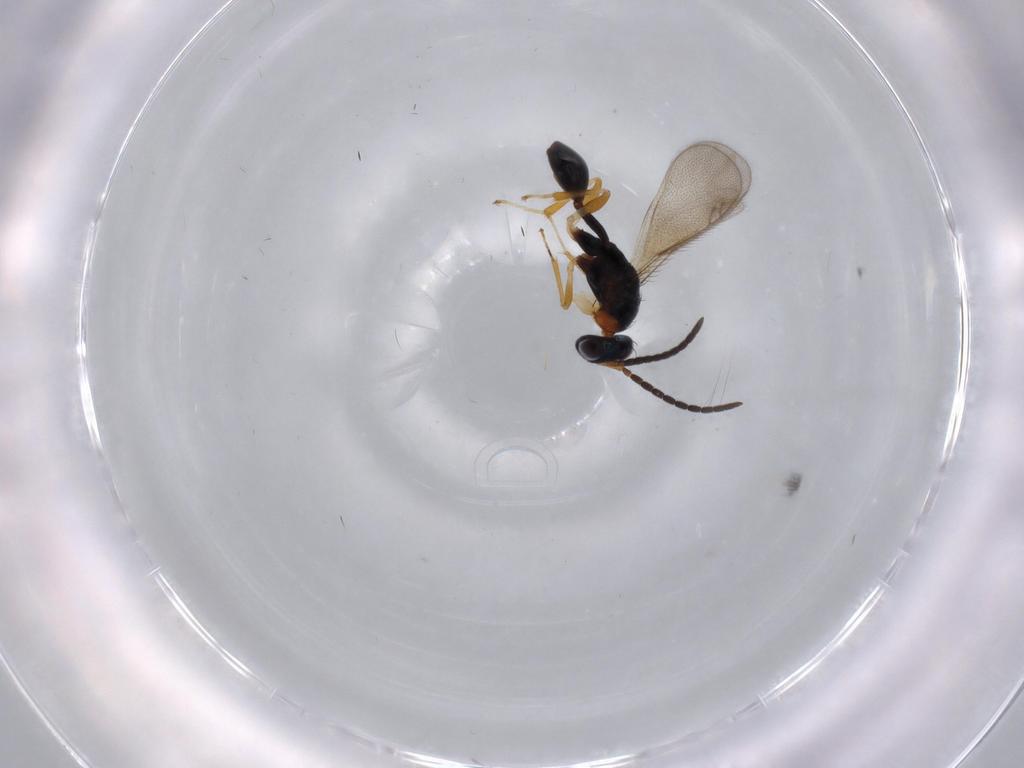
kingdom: Animalia
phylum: Arthropoda
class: Insecta
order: Hymenoptera
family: Diparidae
